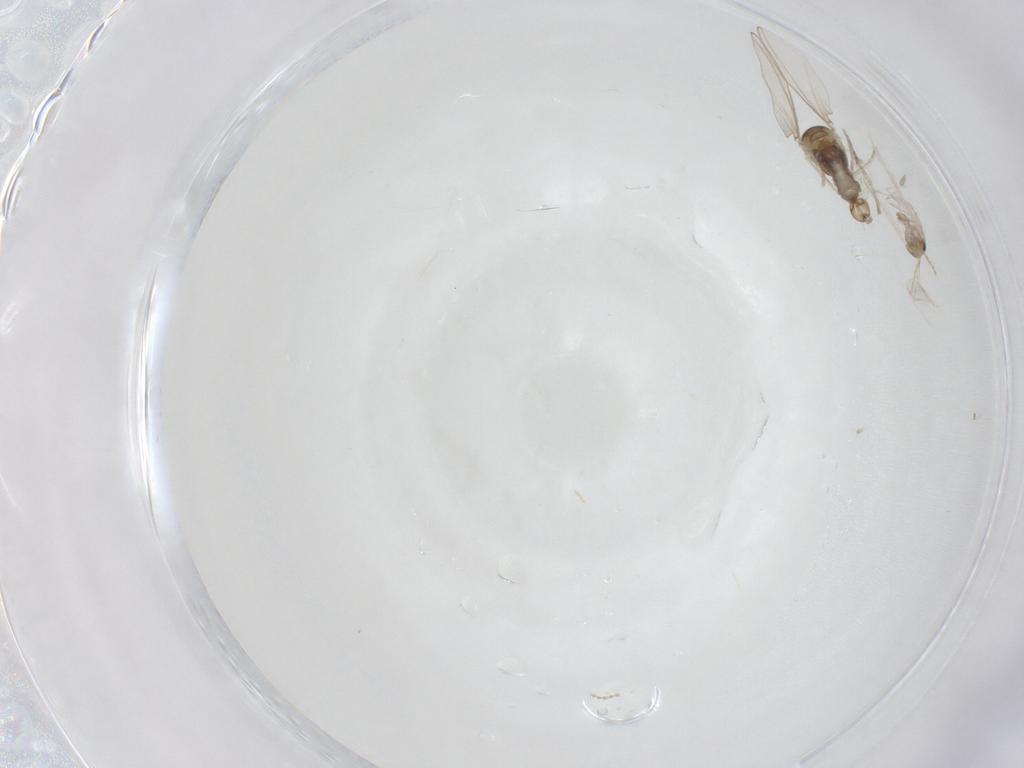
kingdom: Animalia
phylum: Arthropoda
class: Insecta
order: Diptera
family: Cecidomyiidae
